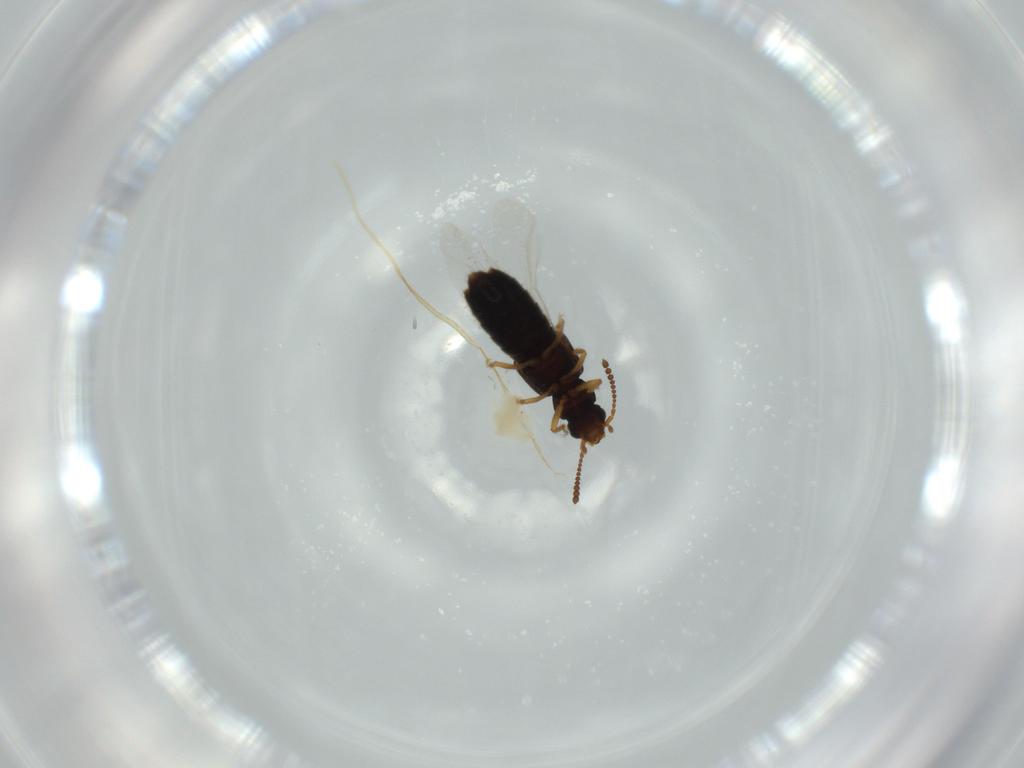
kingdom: Animalia
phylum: Arthropoda
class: Insecta
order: Coleoptera
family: Staphylinidae
